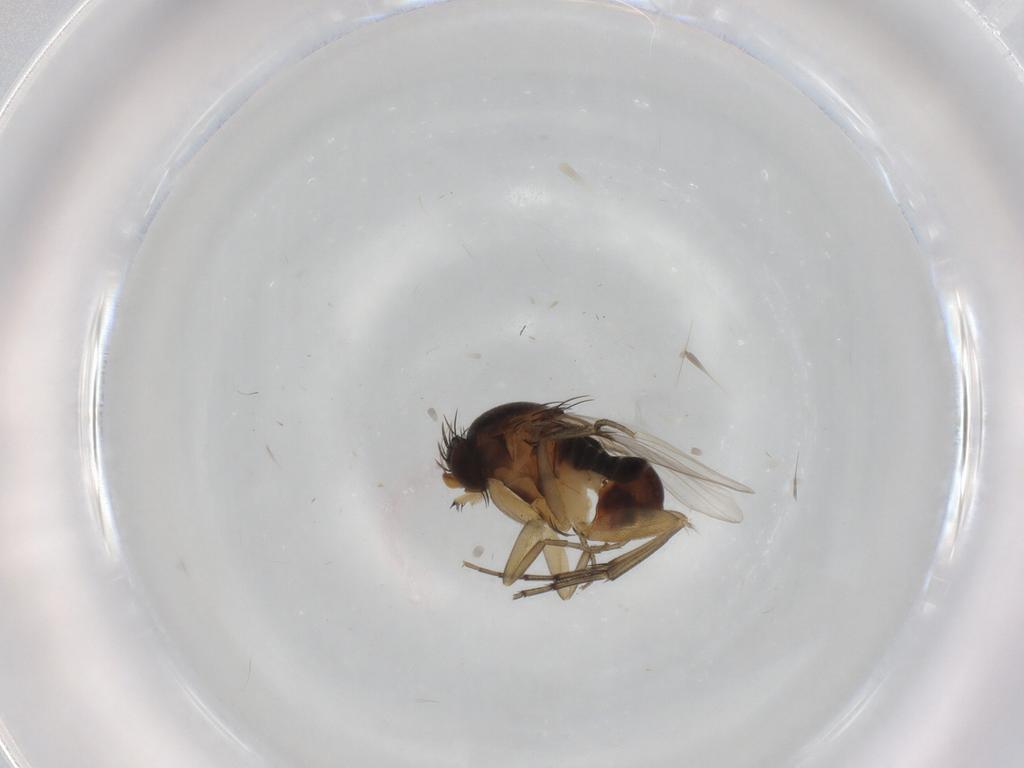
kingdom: Animalia
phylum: Arthropoda
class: Insecta
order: Diptera
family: Phoridae
